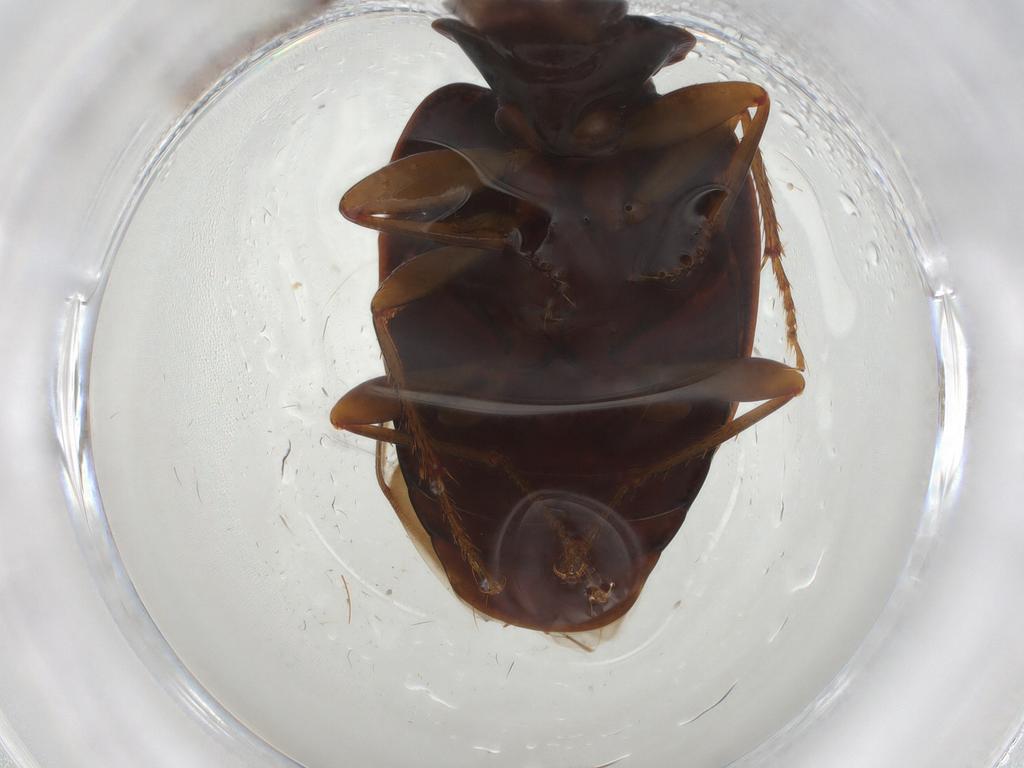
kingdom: Animalia
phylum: Arthropoda
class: Insecta
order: Coleoptera
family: Carabidae
